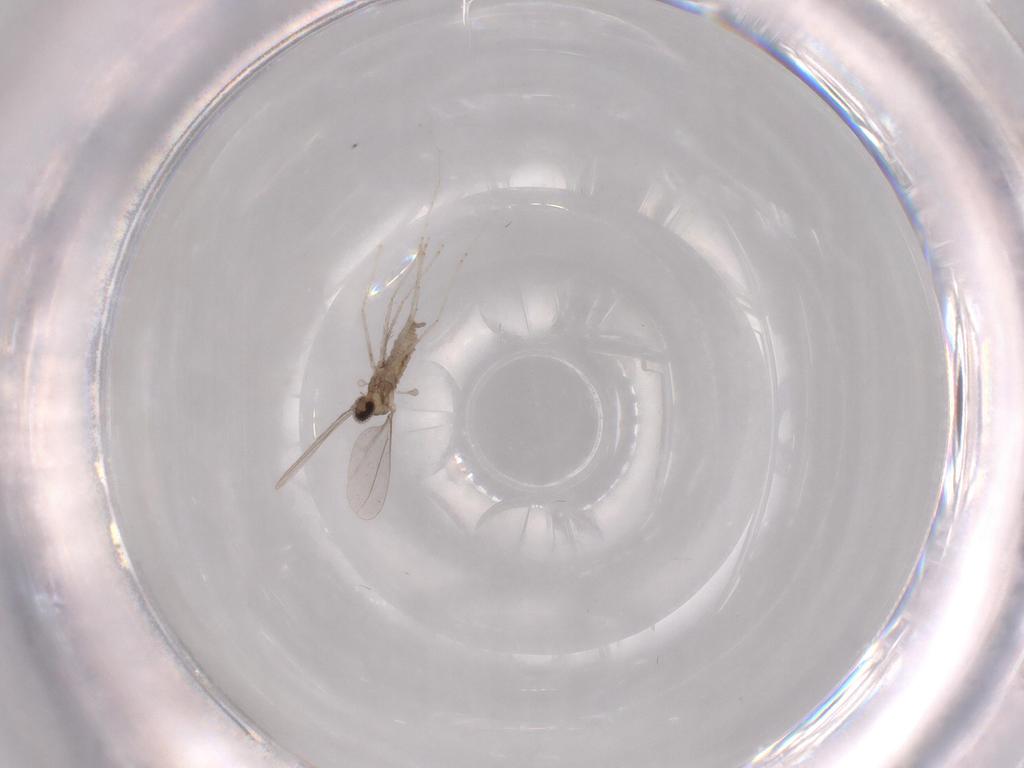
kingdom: Animalia
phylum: Arthropoda
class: Insecta
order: Diptera
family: Cecidomyiidae
